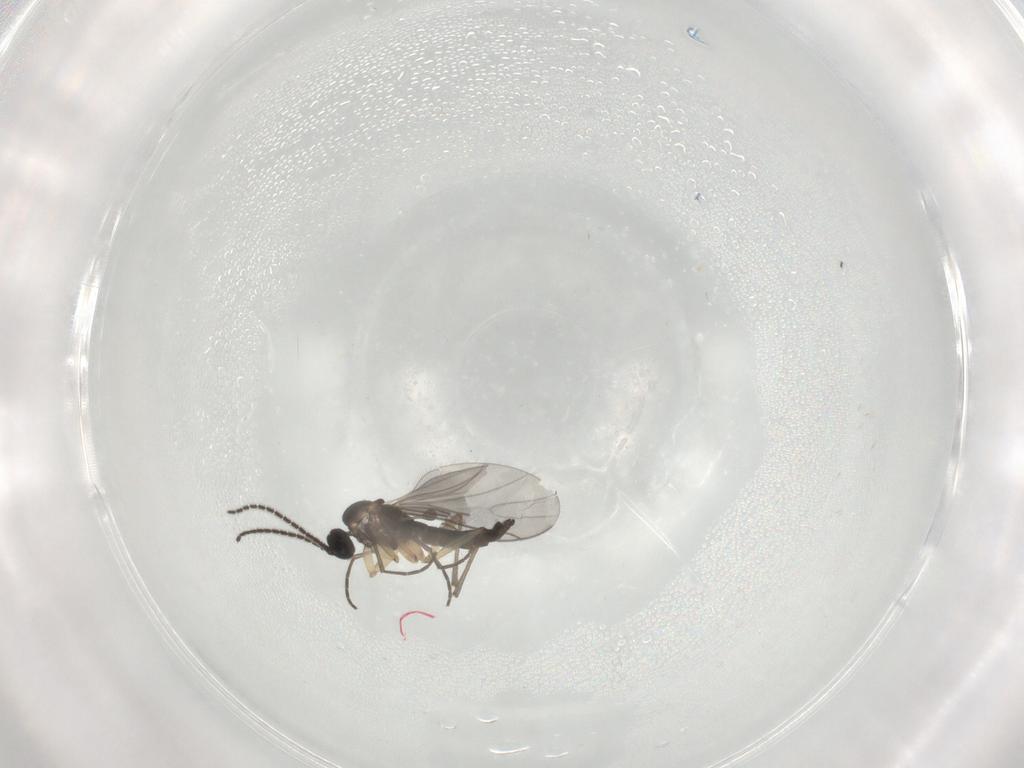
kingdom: Animalia
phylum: Arthropoda
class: Insecta
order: Diptera
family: Sciaridae
